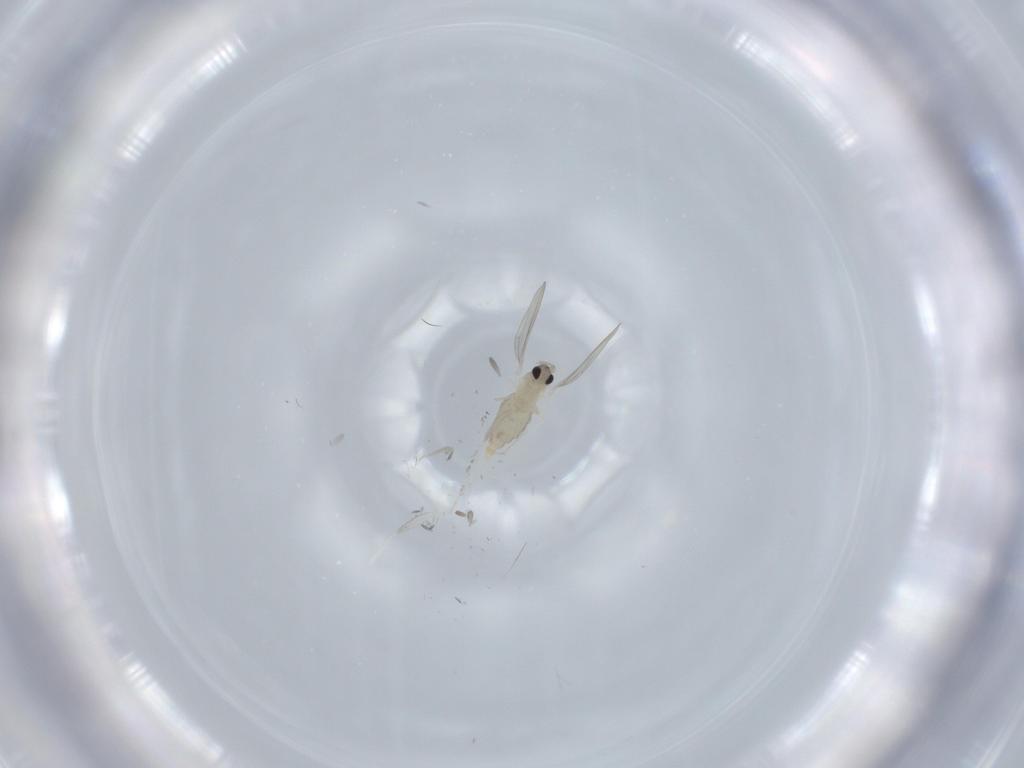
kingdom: Animalia
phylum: Arthropoda
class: Insecta
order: Diptera
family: Cecidomyiidae
